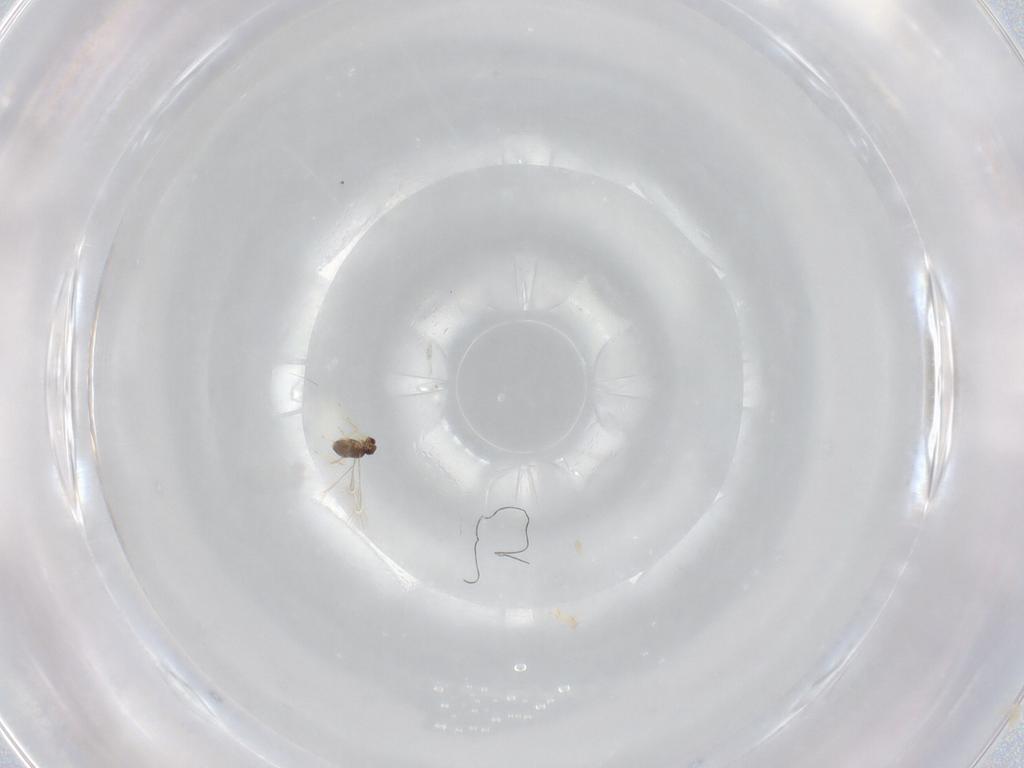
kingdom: Animalia
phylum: Arthropoda
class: Insecta
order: Hymenoptera
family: Mymaridae
